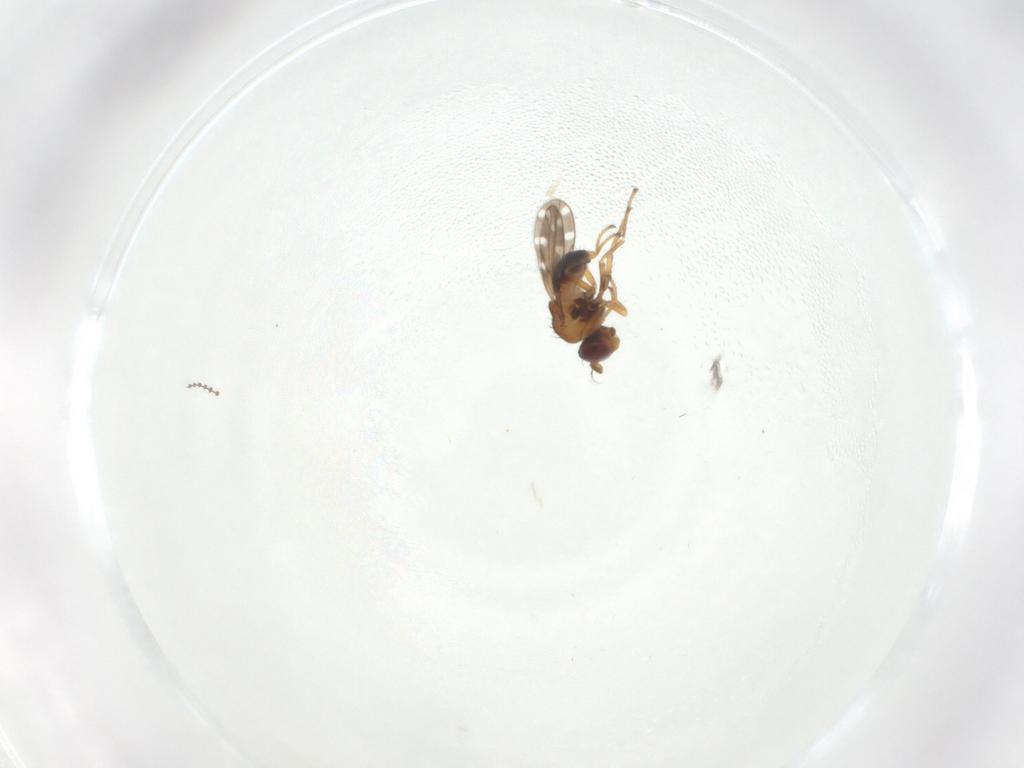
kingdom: Animalia
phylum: Arthropoda
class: Insecta
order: Diptera
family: Ephydridae
